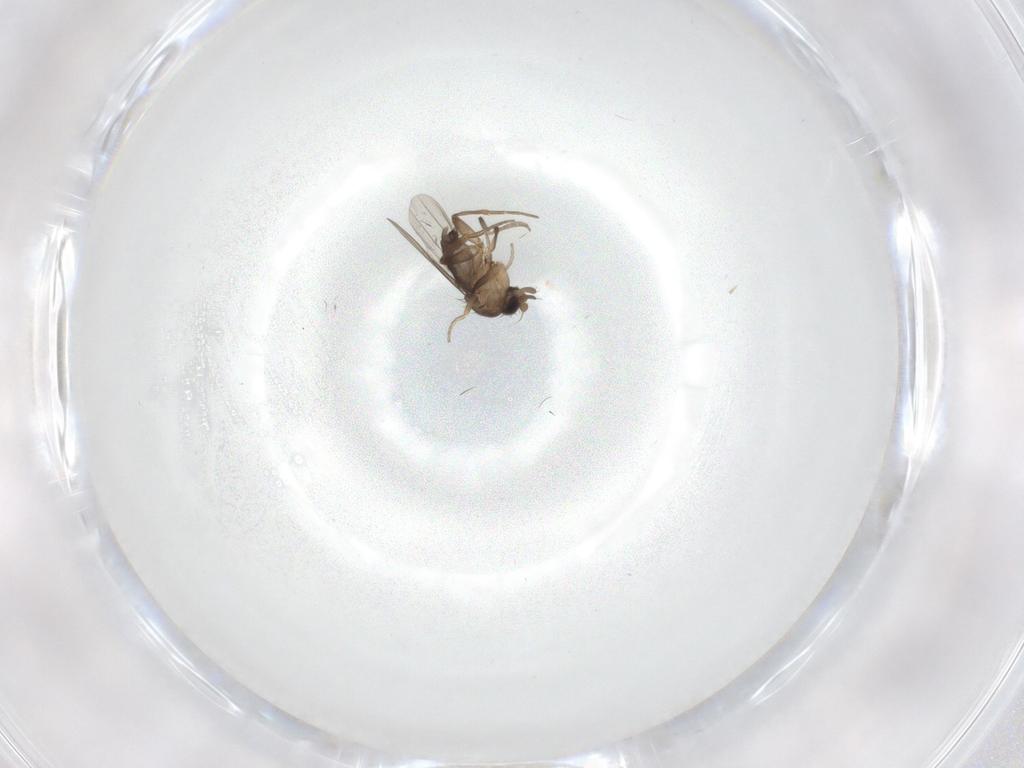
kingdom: Animalia
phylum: Arthropoda
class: Insecta
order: Diptera
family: Phoridae
